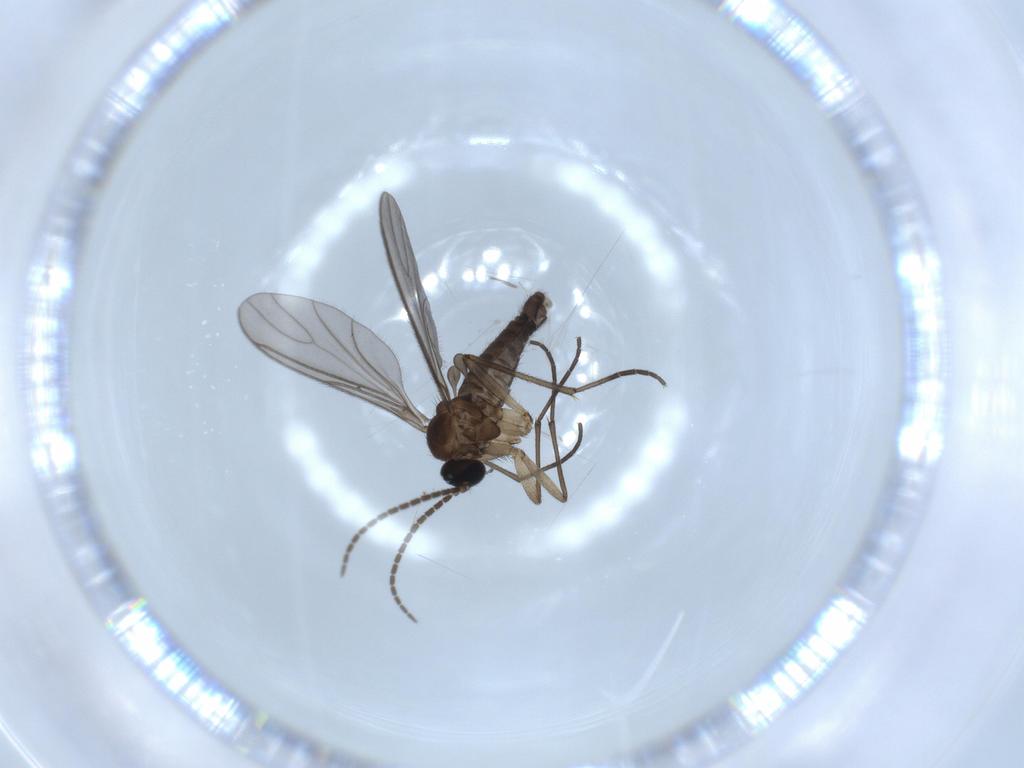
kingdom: Animalia
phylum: Arthropoda
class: Insecta
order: Diptera
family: Sciaridae
